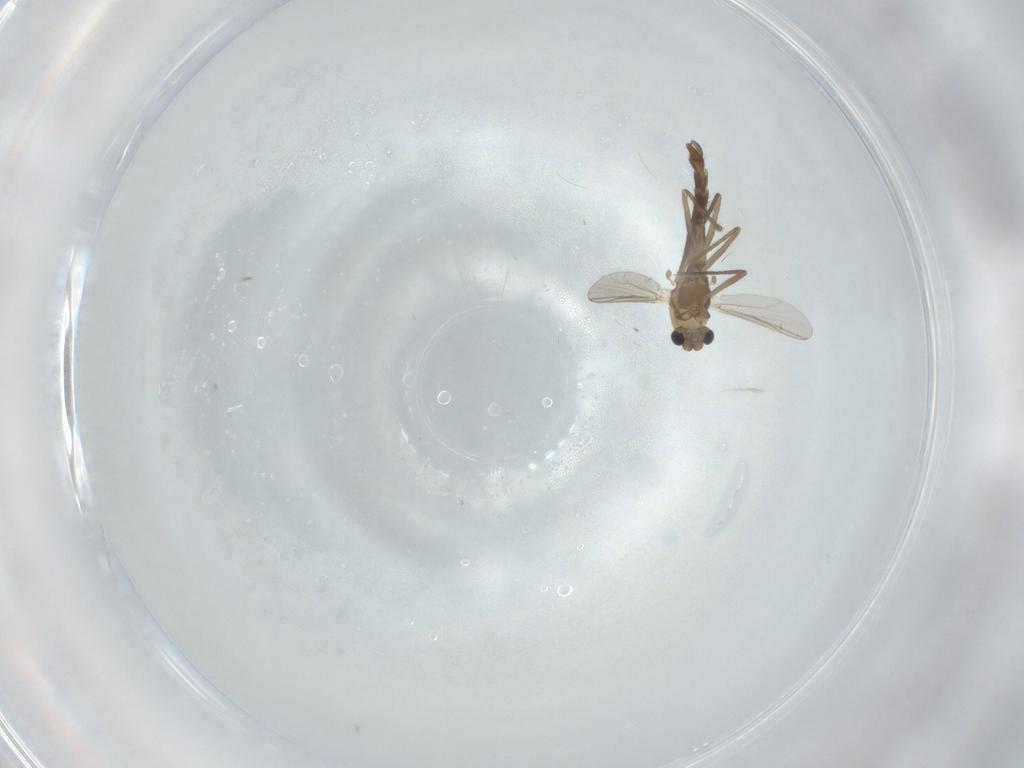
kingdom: Animalia
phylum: Arthropoda
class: Insecta
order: Diptera
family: Chironomidae
